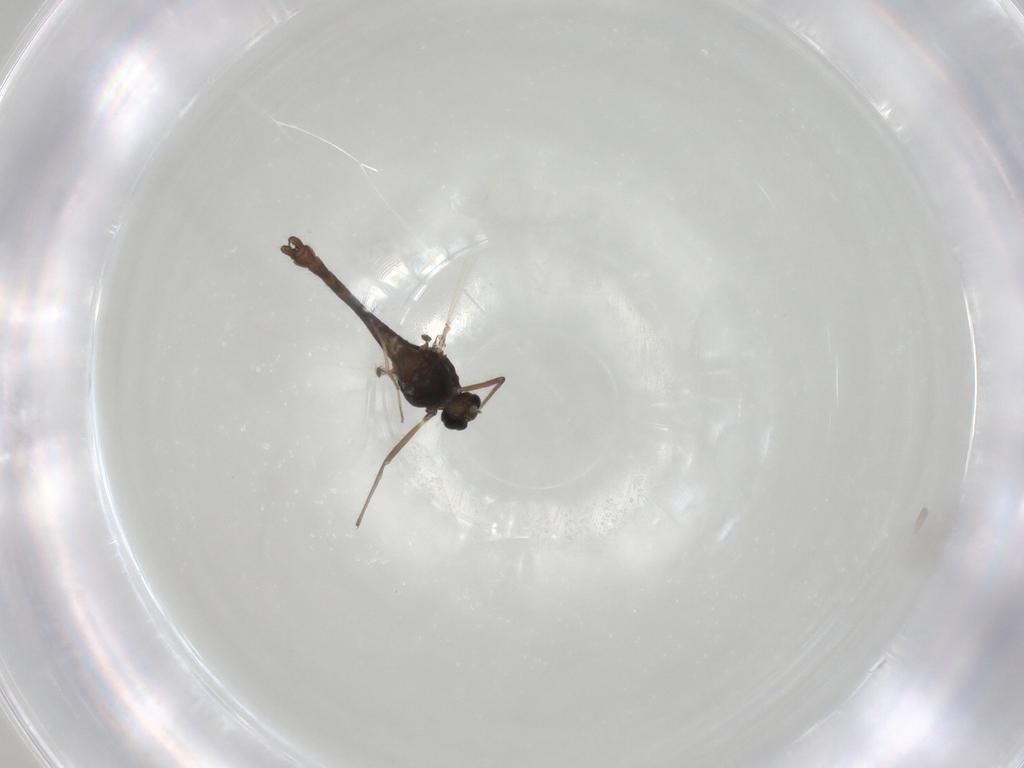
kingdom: Animalia
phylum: Arthropoda
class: Insecta
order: Diptera
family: Chironomidae
